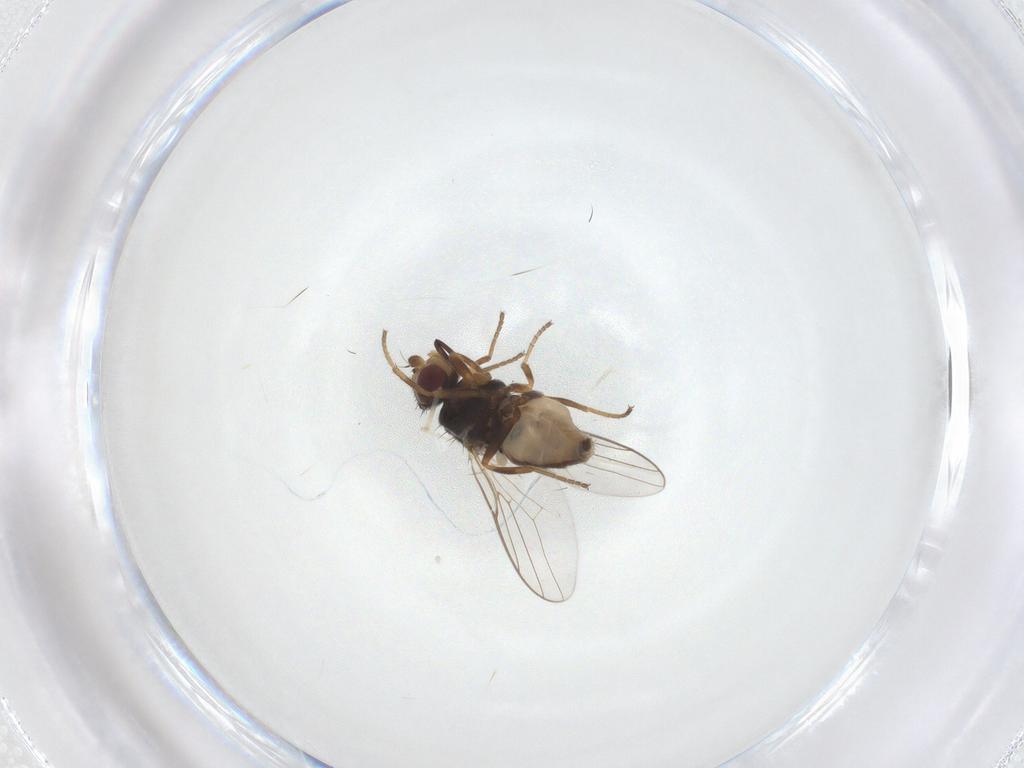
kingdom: Animalia
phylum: Arthropoda
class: Insecta
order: Diptera
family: Chloropidae
